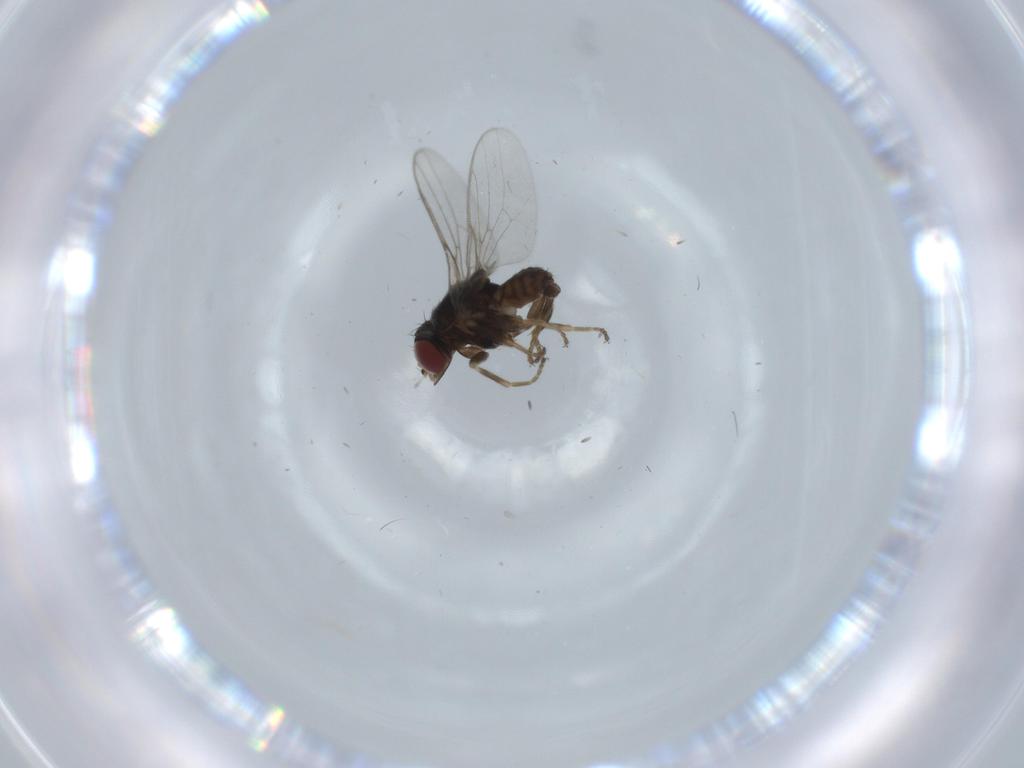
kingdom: Animalia
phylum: Arthropoda
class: Insecta
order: Diptera
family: Chloropidae
